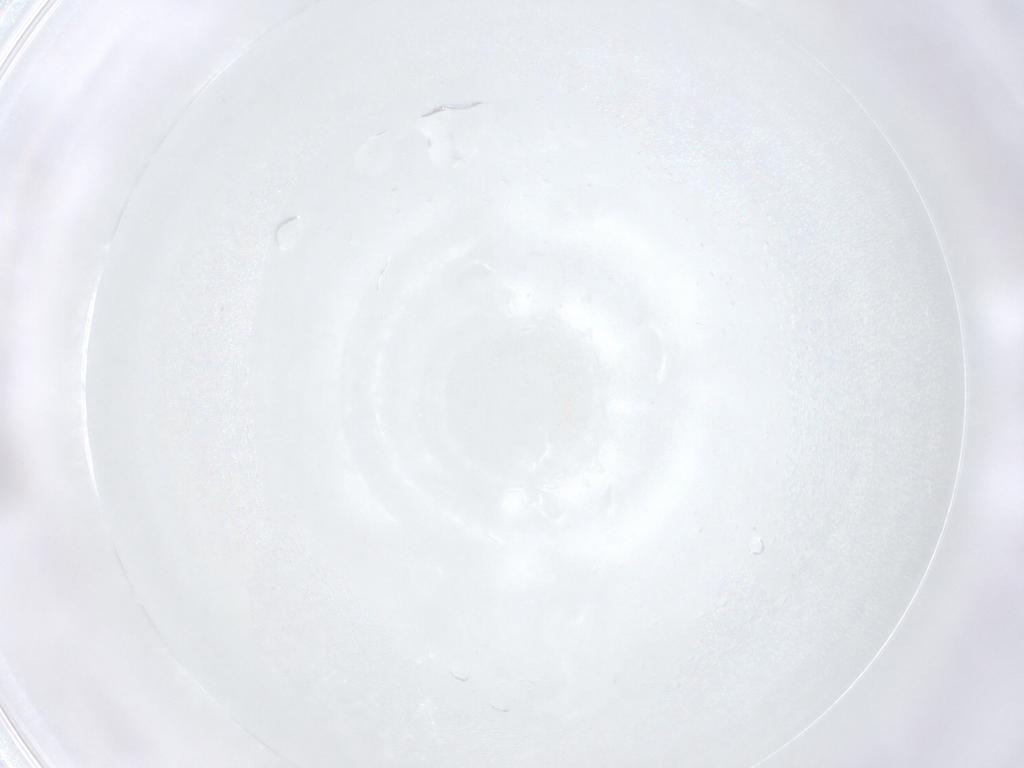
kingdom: Animalia
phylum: Arthropoda
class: Insecta
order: Diptera
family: Cecidomyiidae
